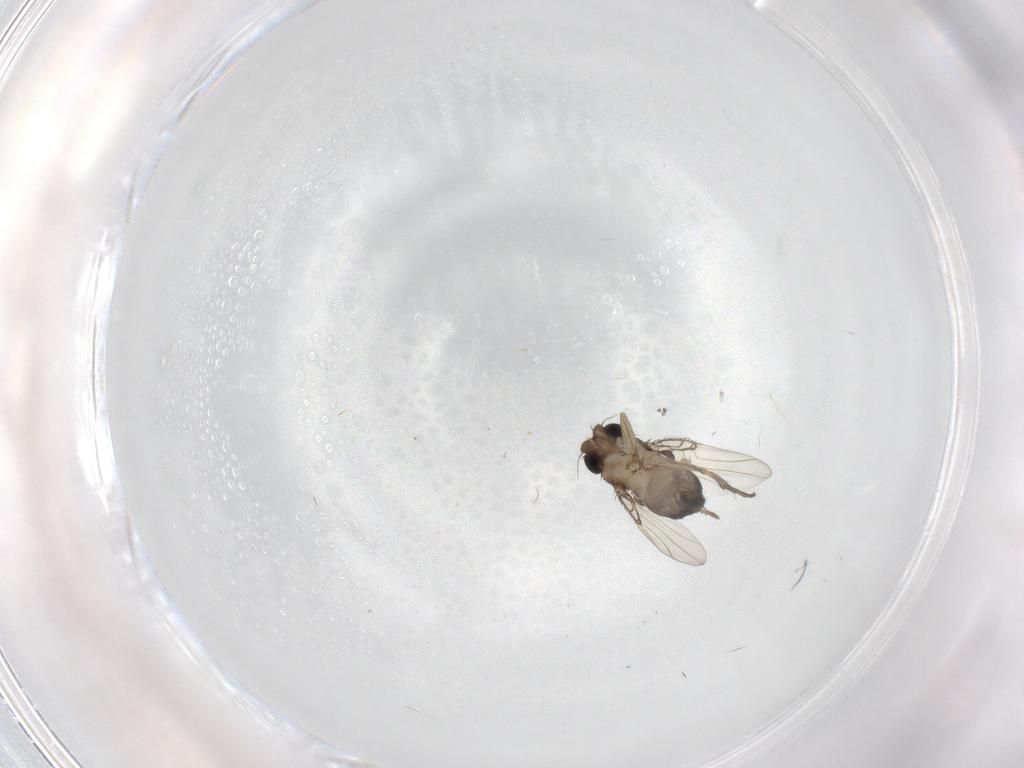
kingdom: Animalia
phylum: Arthropoda
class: Insecta
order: Diptera
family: Cecidomyiidae
